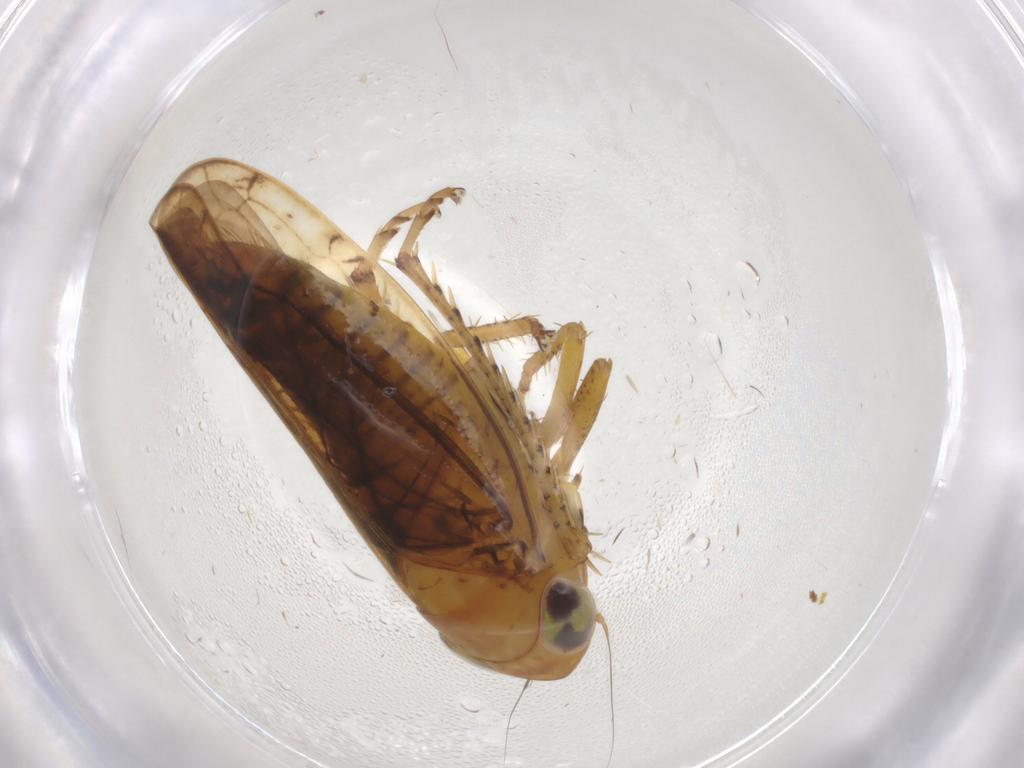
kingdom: Animalia
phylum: Arthropoda
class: Insecta
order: Hemiptera
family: Cicadellidae
